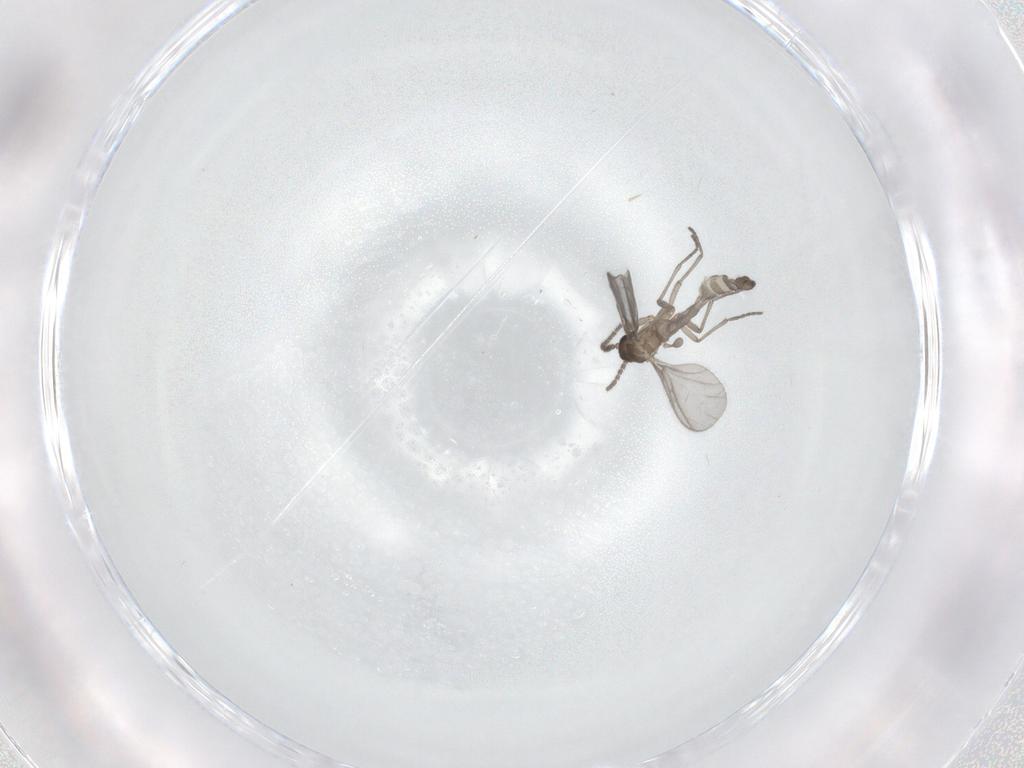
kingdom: Animalia
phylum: Arthropoda
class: Insecta
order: Diptera
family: Sciaridae
